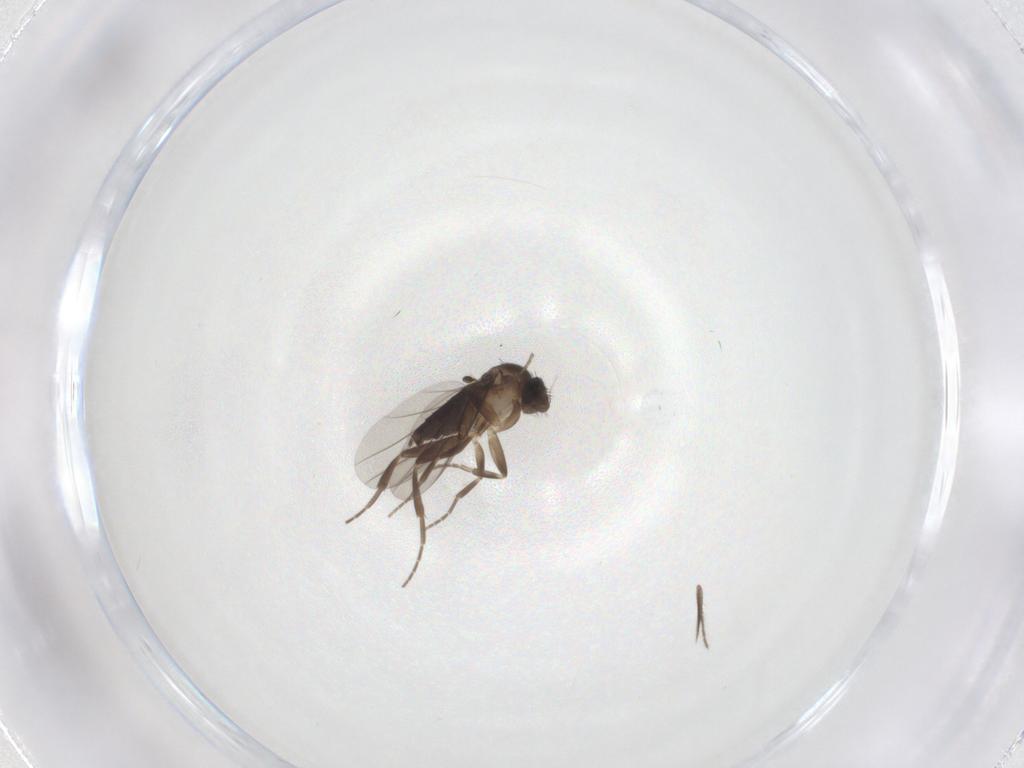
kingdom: Animalia
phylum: Arthropoda
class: Insecta
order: Diptera
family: Phoridae
